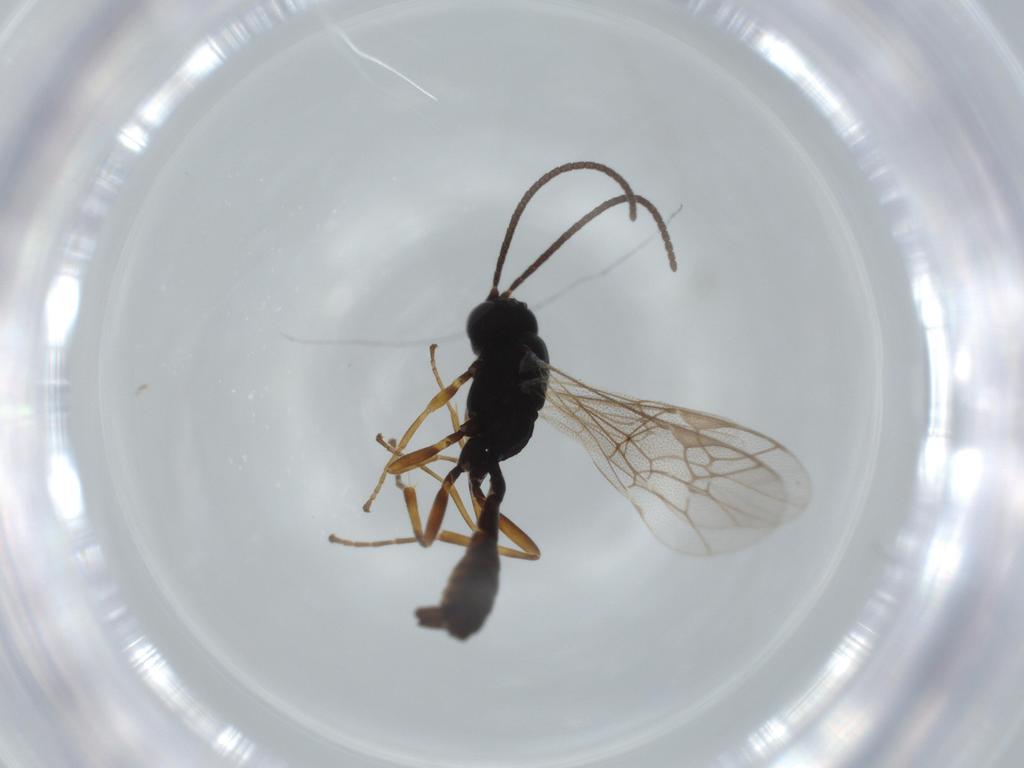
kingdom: Animalia
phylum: Arthropoda
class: Insecta
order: Hymenoptera
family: Ichneumonidae
